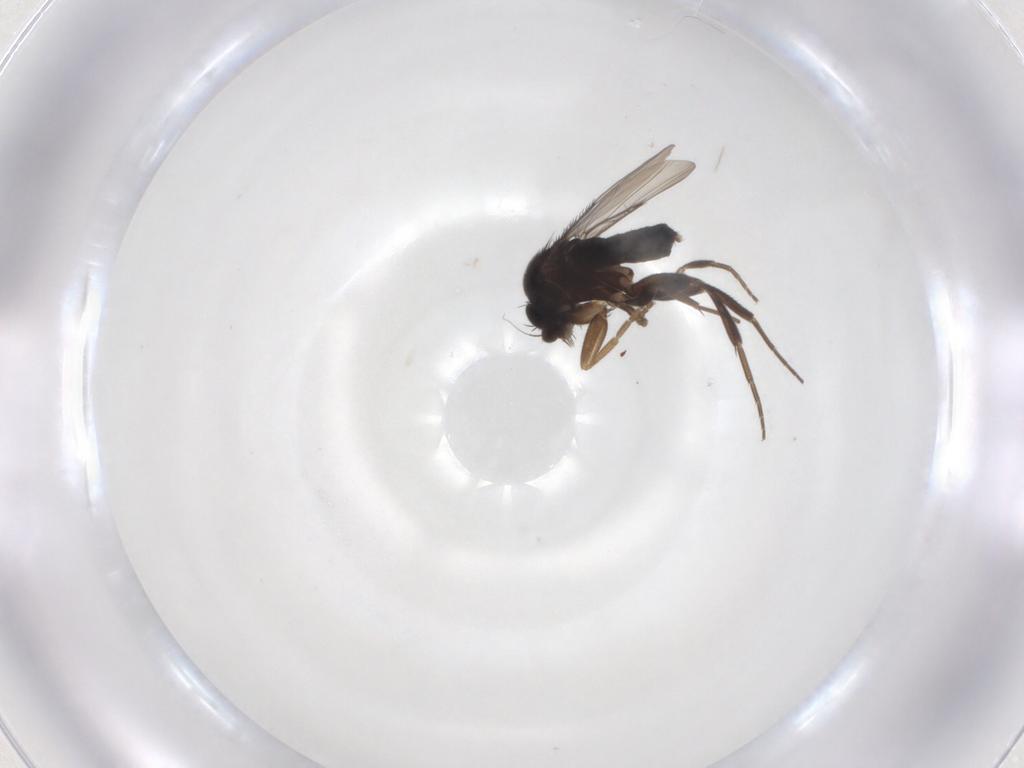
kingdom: Animalia
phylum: Arthropoda
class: Insecta
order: Diptera
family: Phoridae
